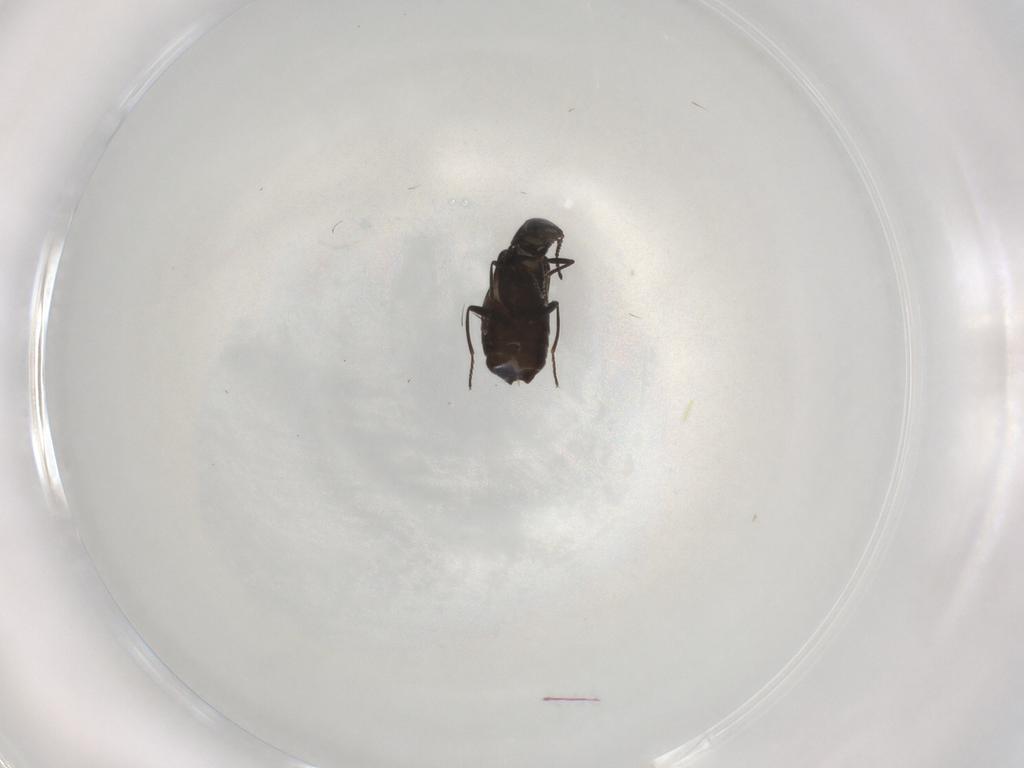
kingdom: Animalia
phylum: Arthropoda
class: Insecta
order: Coleoptera
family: Melyridae
